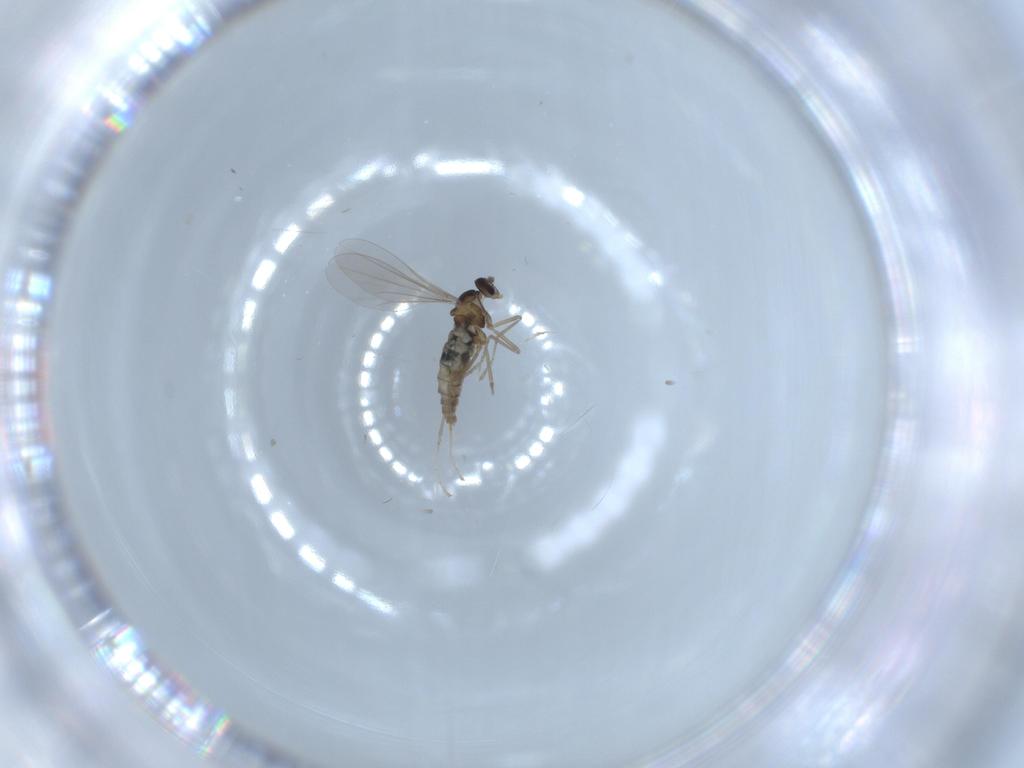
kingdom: Animalia
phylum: Arthropoda
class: Insecta
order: Diptera
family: Cecidomyiidae
